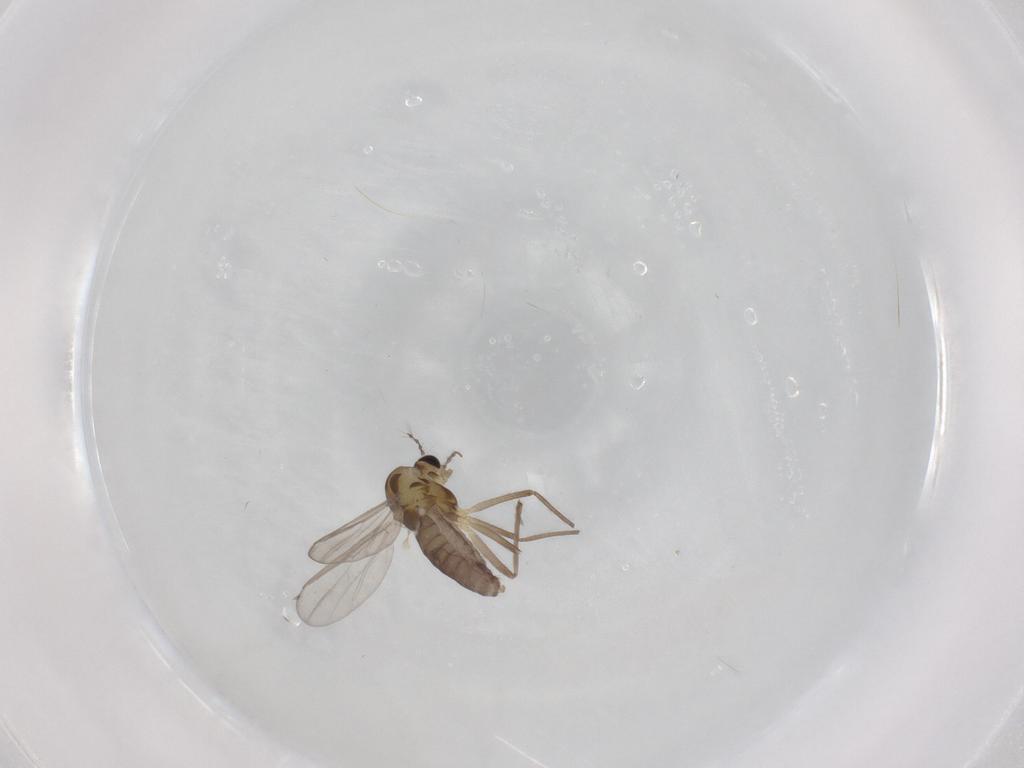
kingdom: Animalia
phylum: Arthropoda
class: Insecta
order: Diptera
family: Chironomidae
